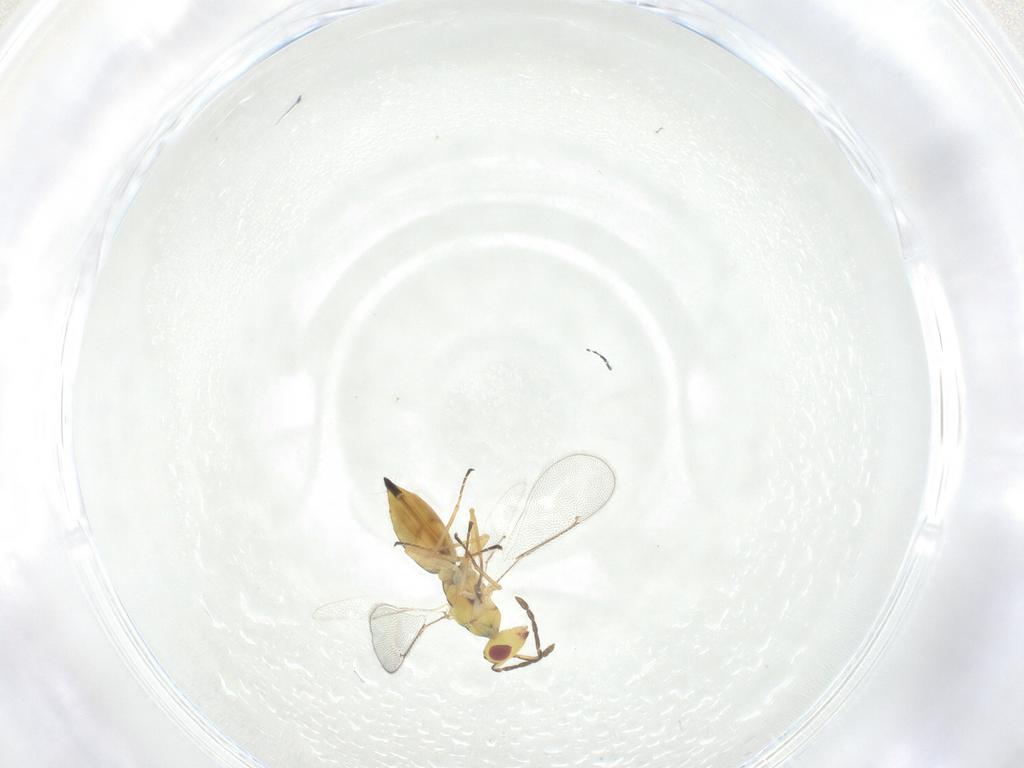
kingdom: Animalia
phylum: Arthropoda
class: Insecta
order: Hymenoptera
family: Eulophidae
